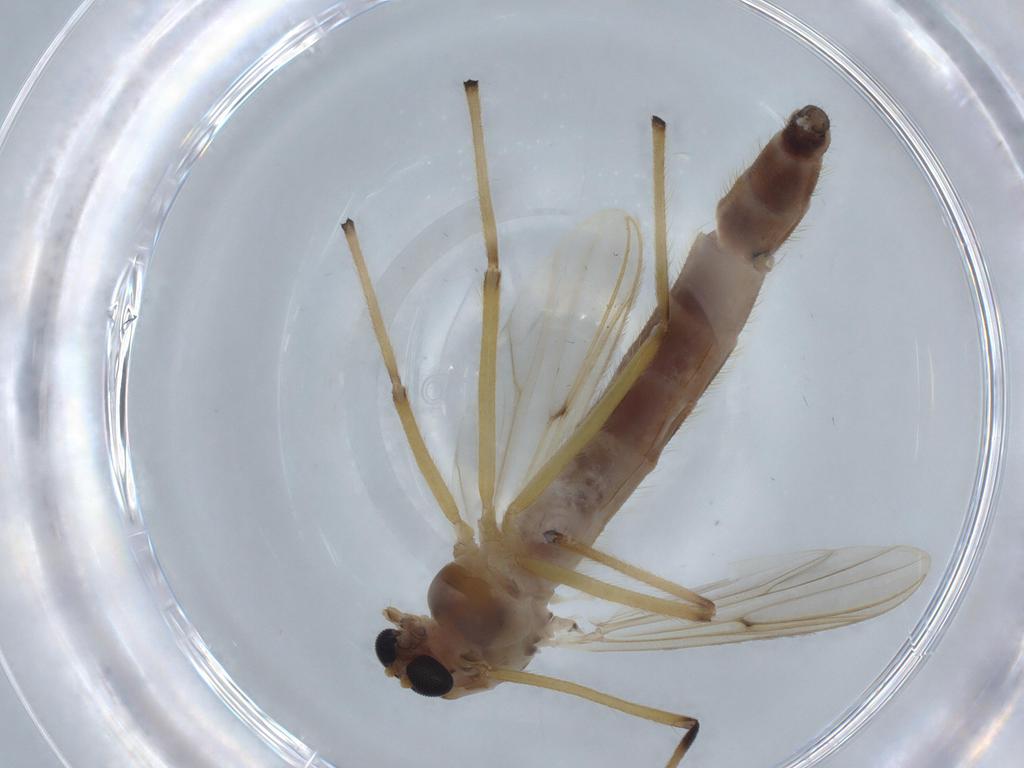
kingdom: Animalia
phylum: Arthropoda
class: Insecta
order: Diptera
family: Chironomidae
